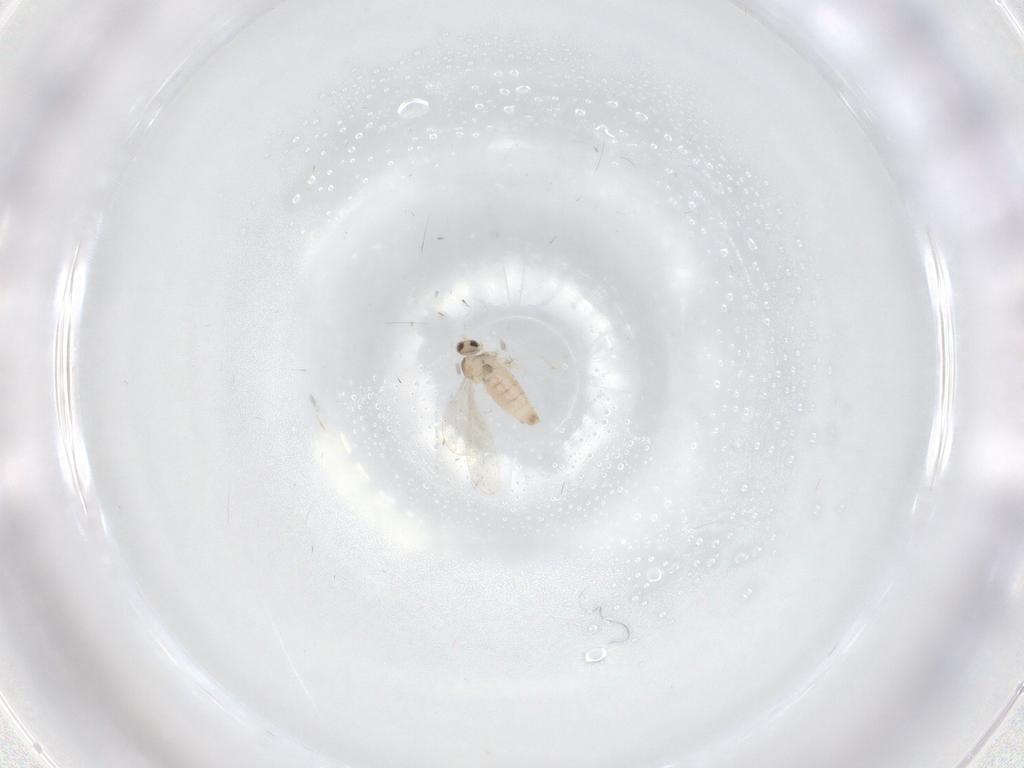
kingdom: Animalia
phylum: Arthropoda
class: Insecta
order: Diptera
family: Cecidomyiidae
